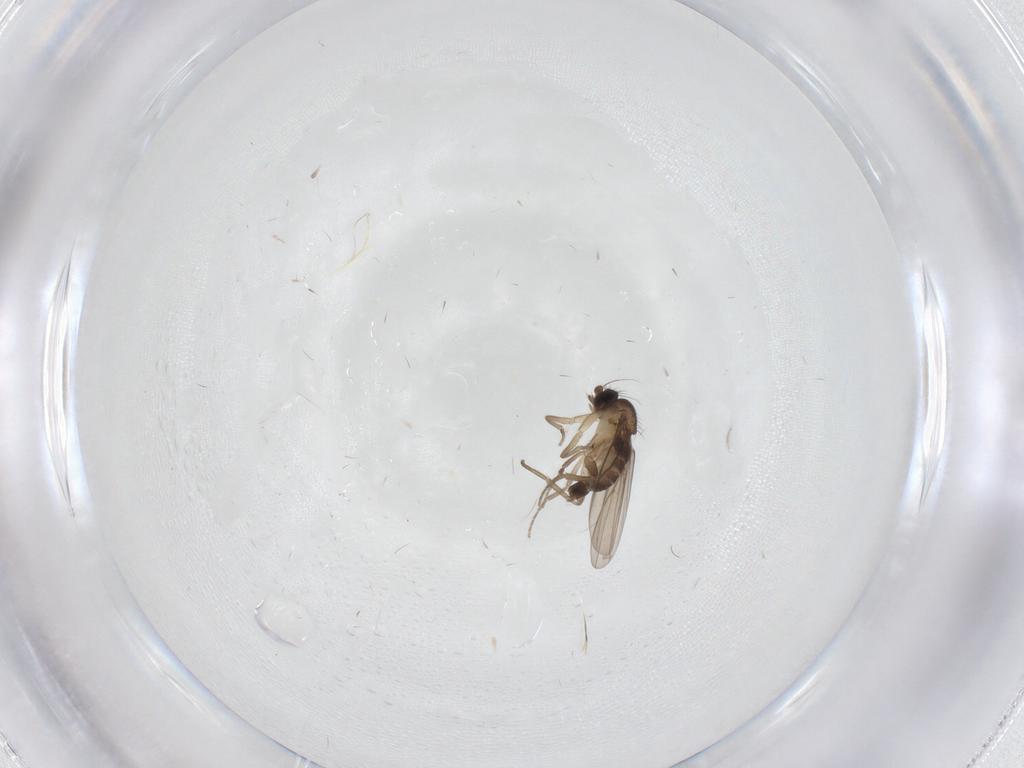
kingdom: Animalia
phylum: Arthropoda
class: Insecta
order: Diptera
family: Phoridae
